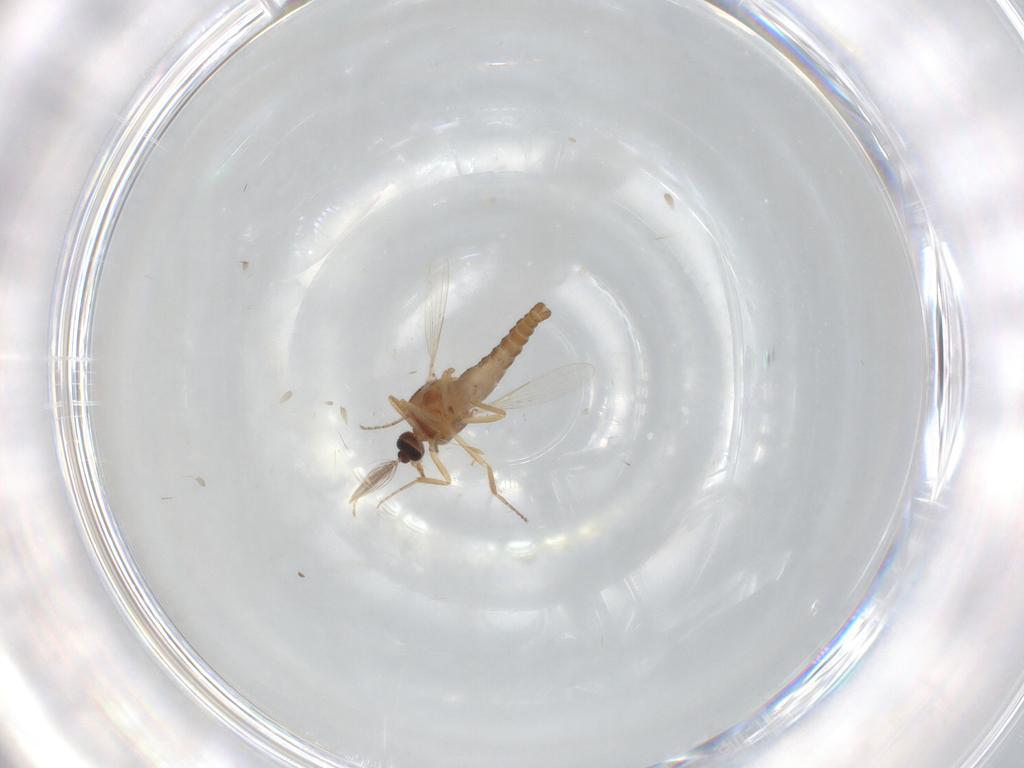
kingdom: Animalia
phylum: Arthropoda
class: Insecta
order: Diptera
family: Ceratopogonidae
